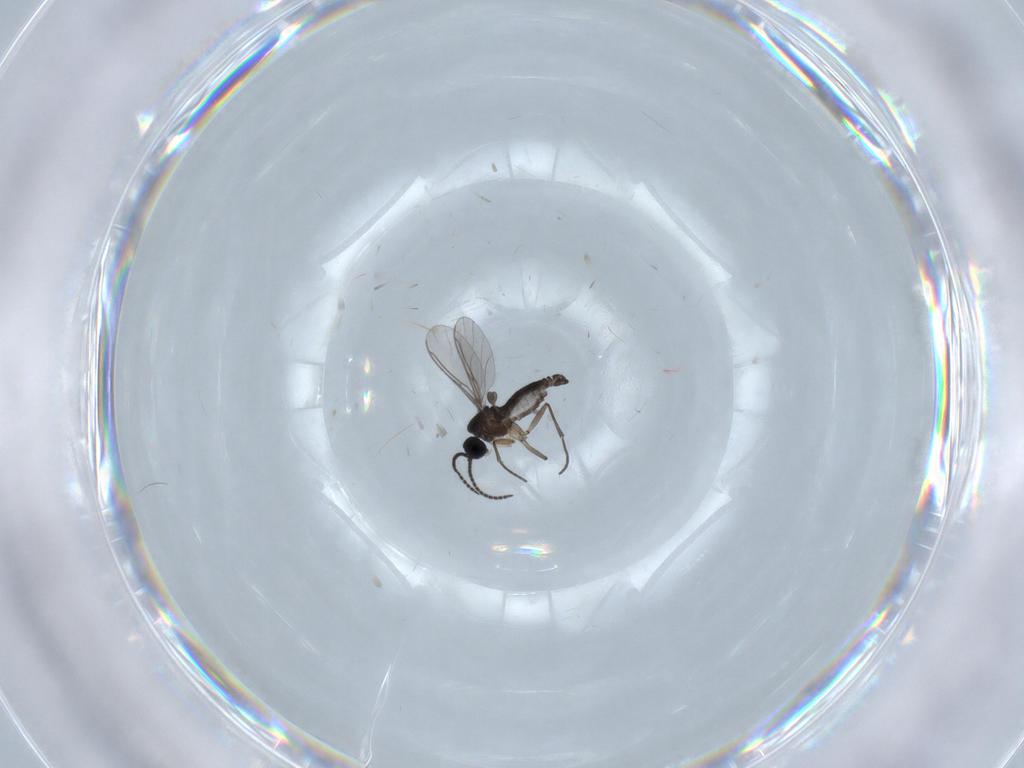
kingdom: Animalia
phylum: Arthropoda
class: Insecta
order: Diptera
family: Sciaridae
